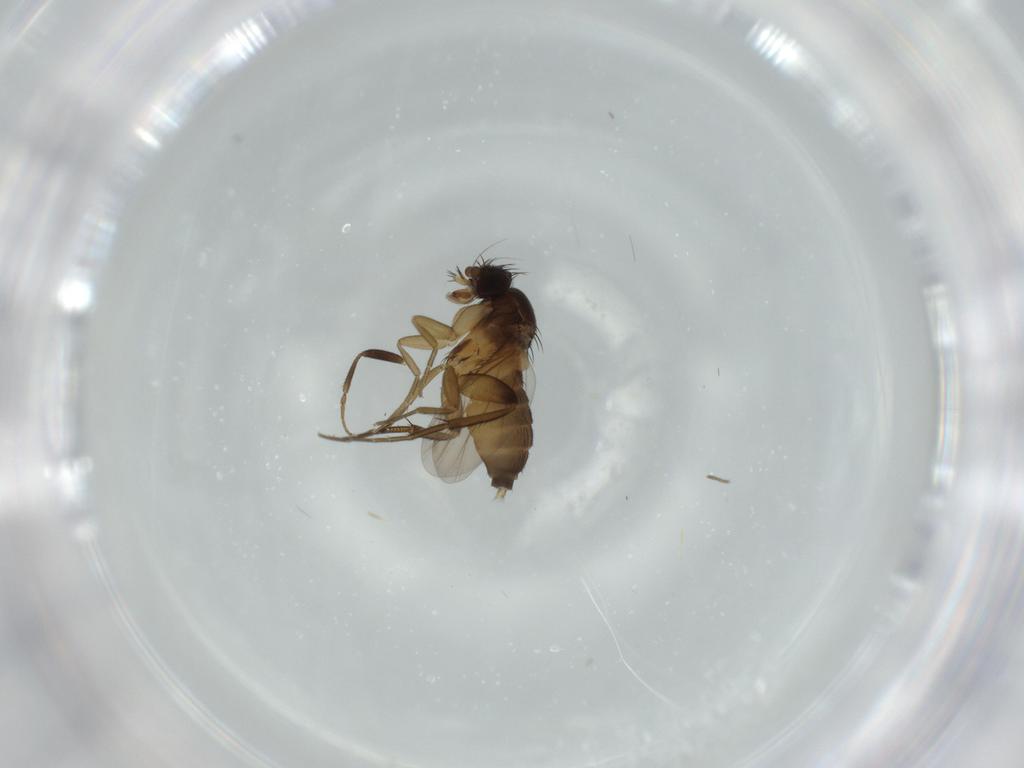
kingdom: Animalia
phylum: Arthropoda
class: Insecta
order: Diptera
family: Phoridae
